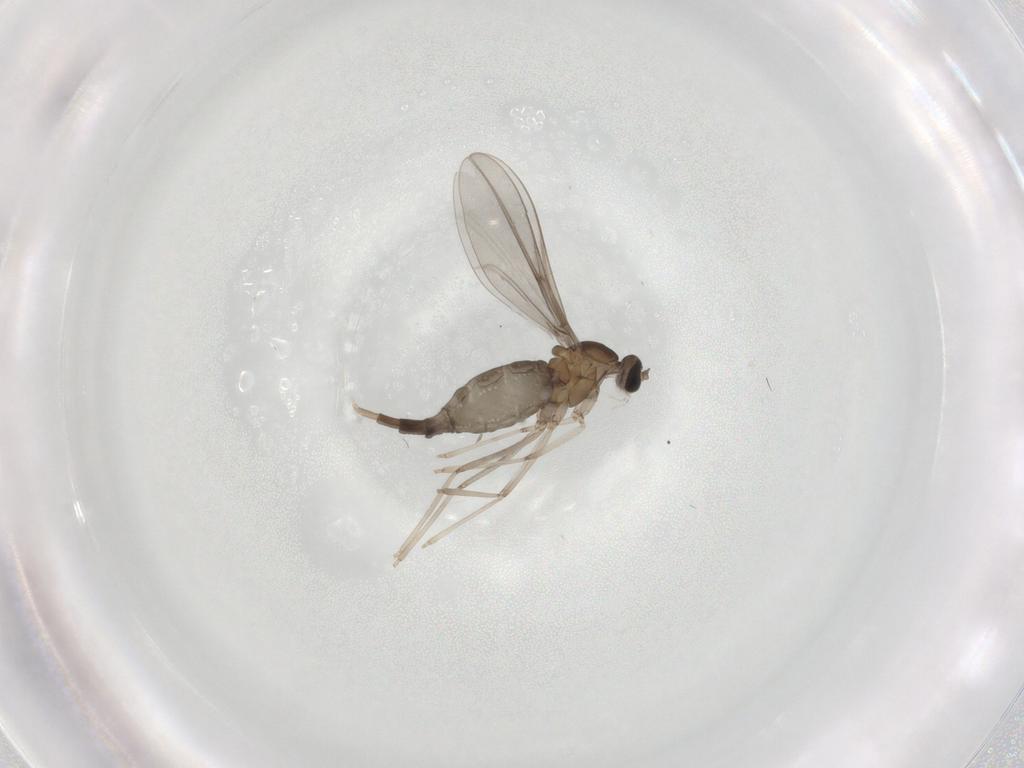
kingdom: Animalia
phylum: Arthropoda
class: Insecta
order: Diptera
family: Cecidomyiidae
